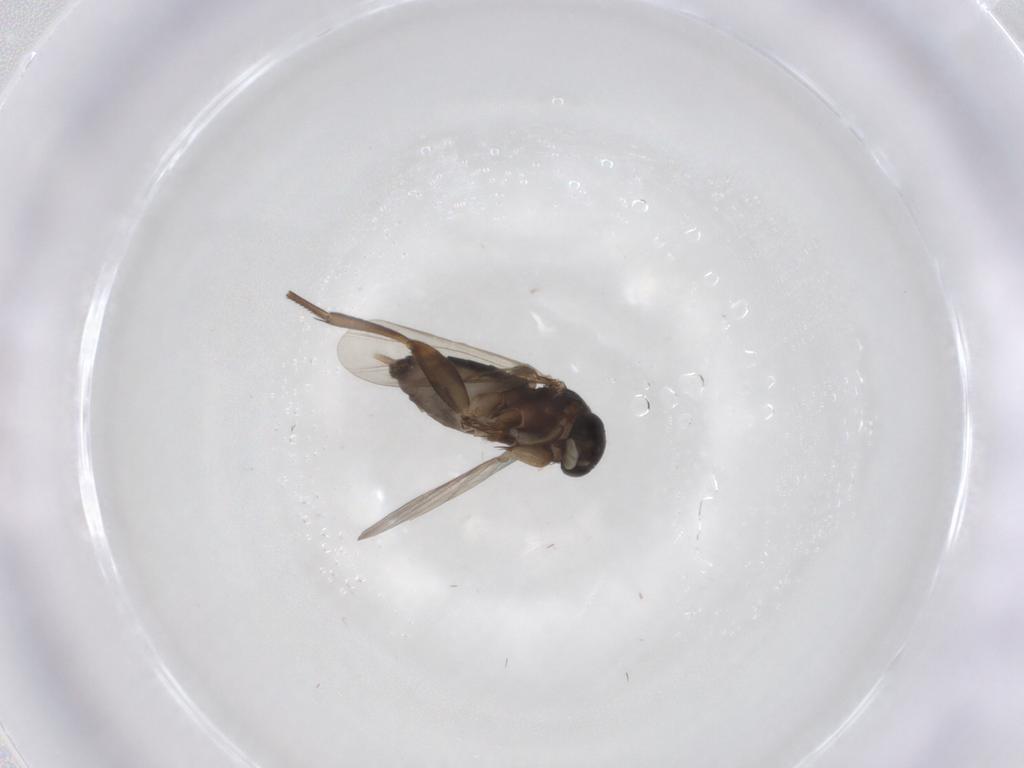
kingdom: Animalia
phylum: Arthropoda
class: Insecta
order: Diptera
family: Phoridae
